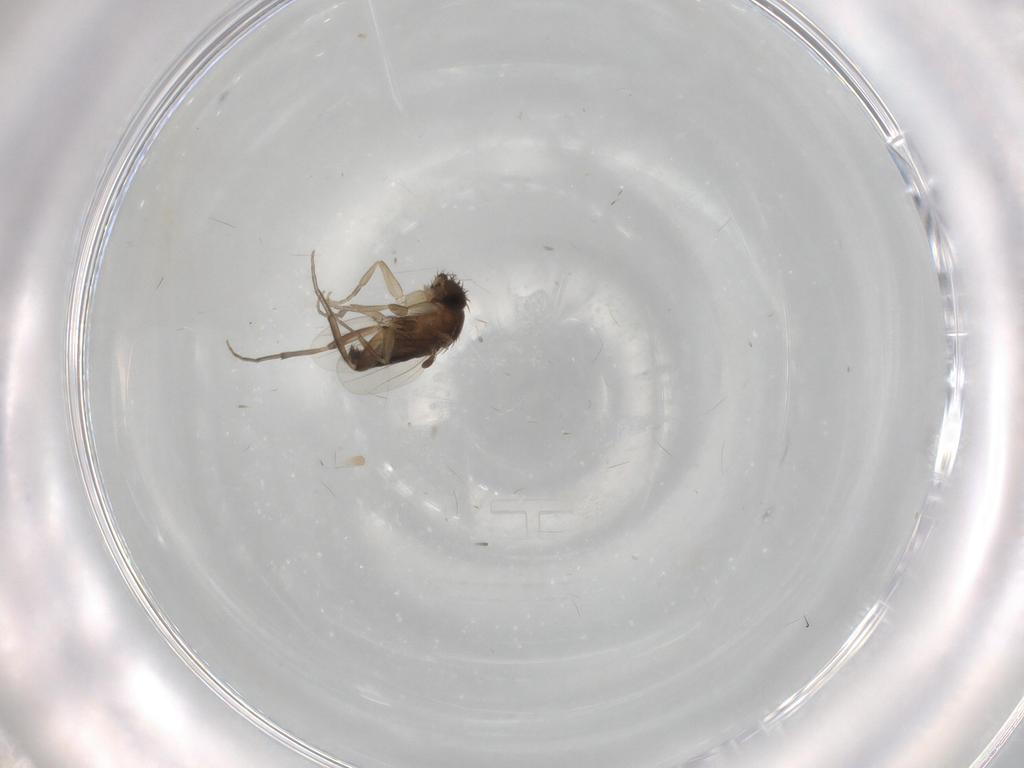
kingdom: Animalia
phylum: Arthropoda
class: Insecta
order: Diptera
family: Phoridae
